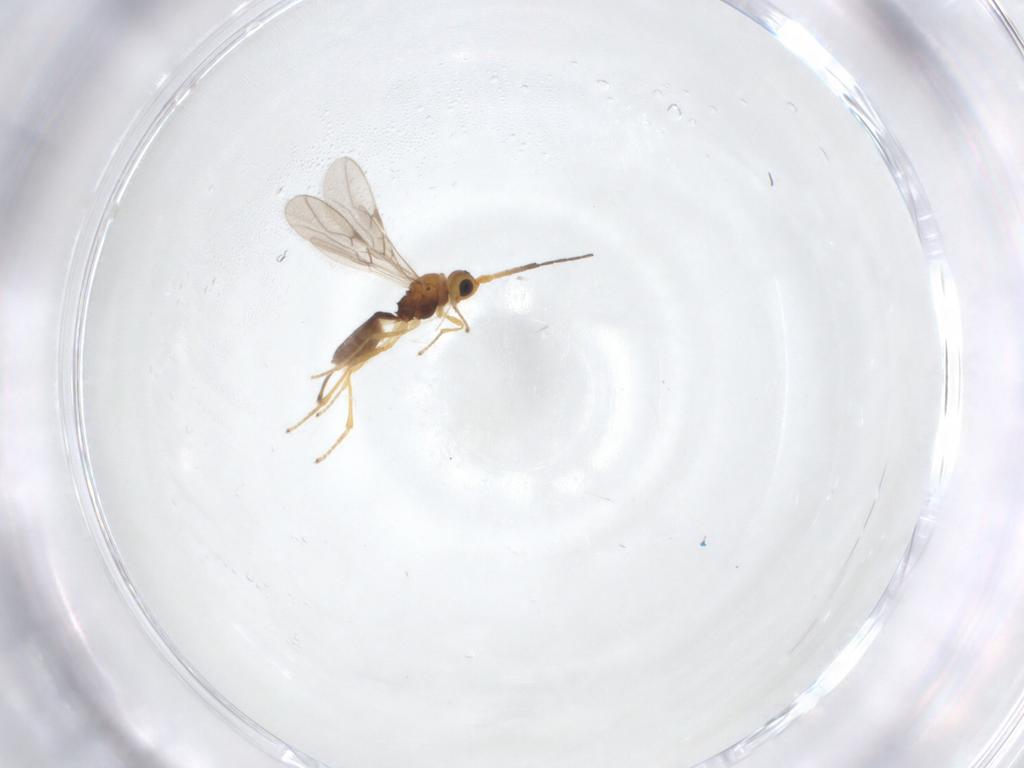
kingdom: Animalia
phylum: Arthropoda
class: Insecta
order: Hymenoptera
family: Braconidae
